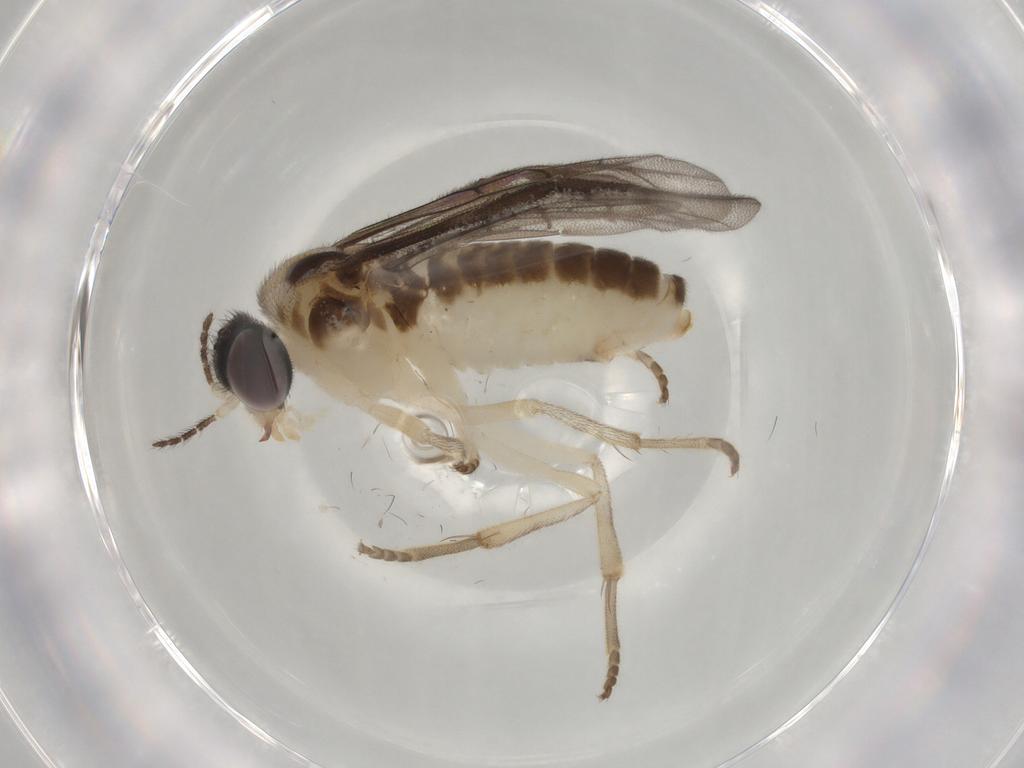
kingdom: Animalia
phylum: Arthropoda
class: Insecta
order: Hymenoptera
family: Pergidae
